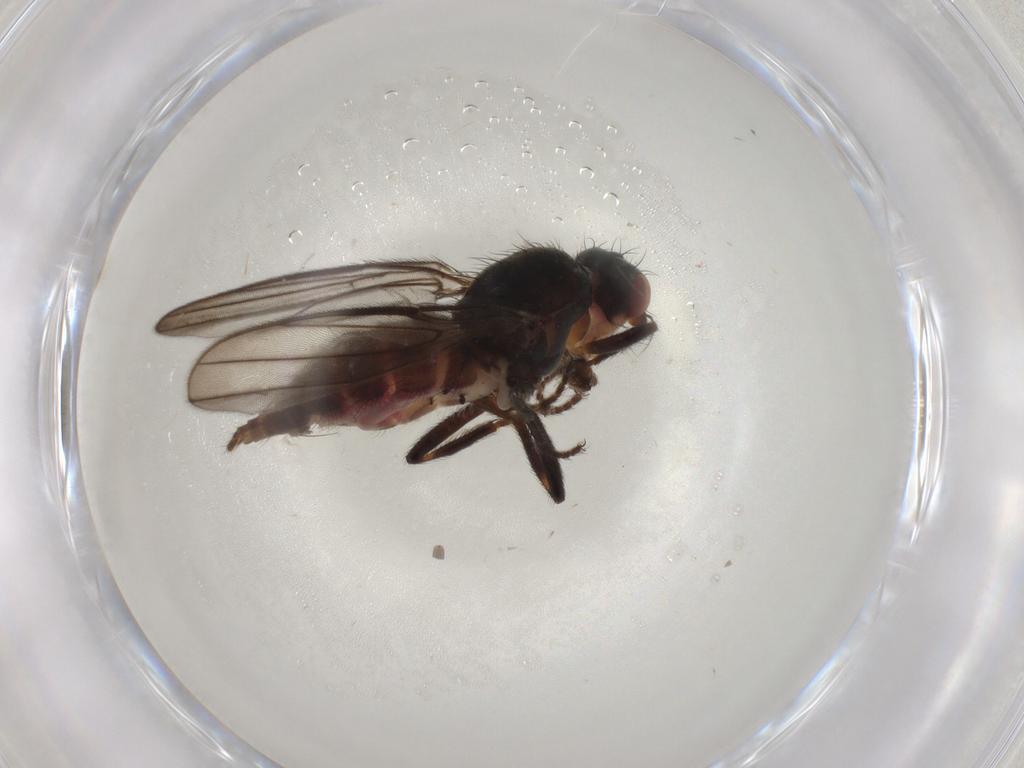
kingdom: Animalia
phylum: Arthropoda
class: Insecta
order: Diptera
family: Chloropidae
